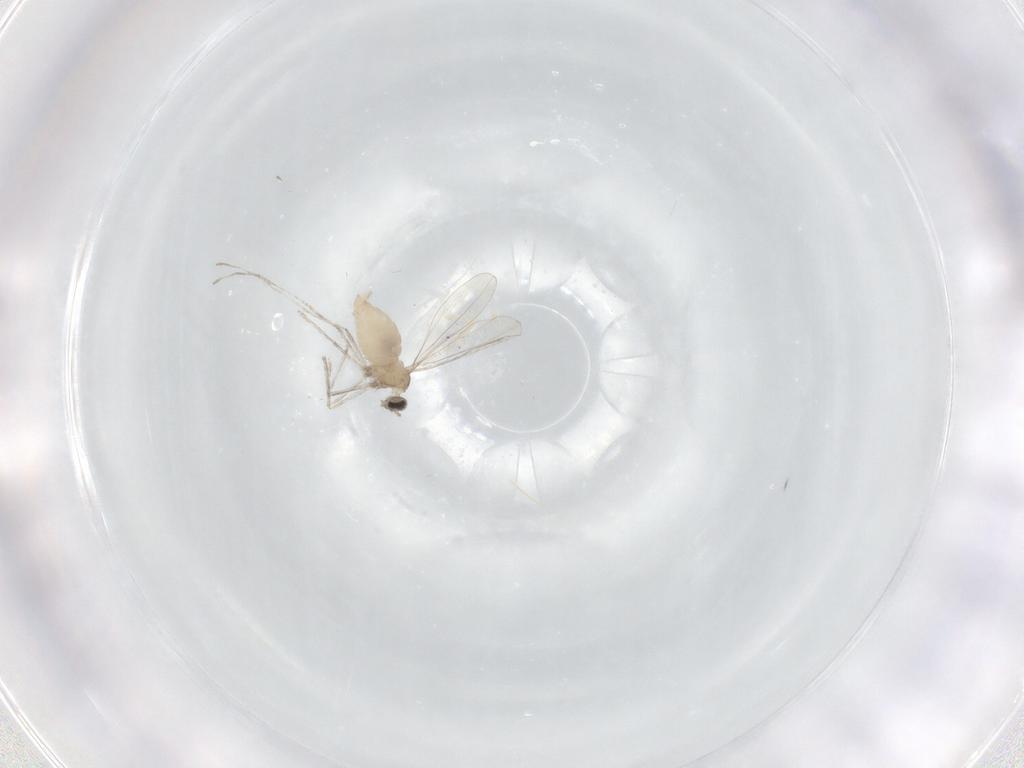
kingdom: Animalia
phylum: Arthropoda
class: Insecta
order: Diptera
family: Cecidomyiidae
